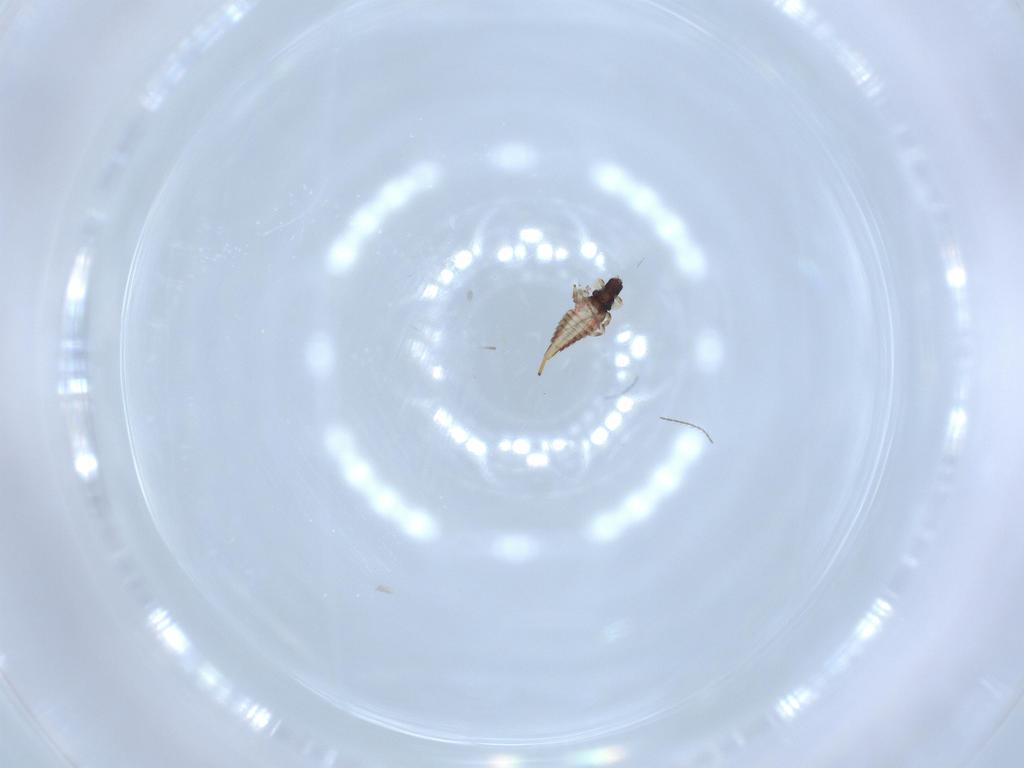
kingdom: Animalia
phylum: Arthropoda
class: Insecta
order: Thysanoptera
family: Phlaeothripidae
